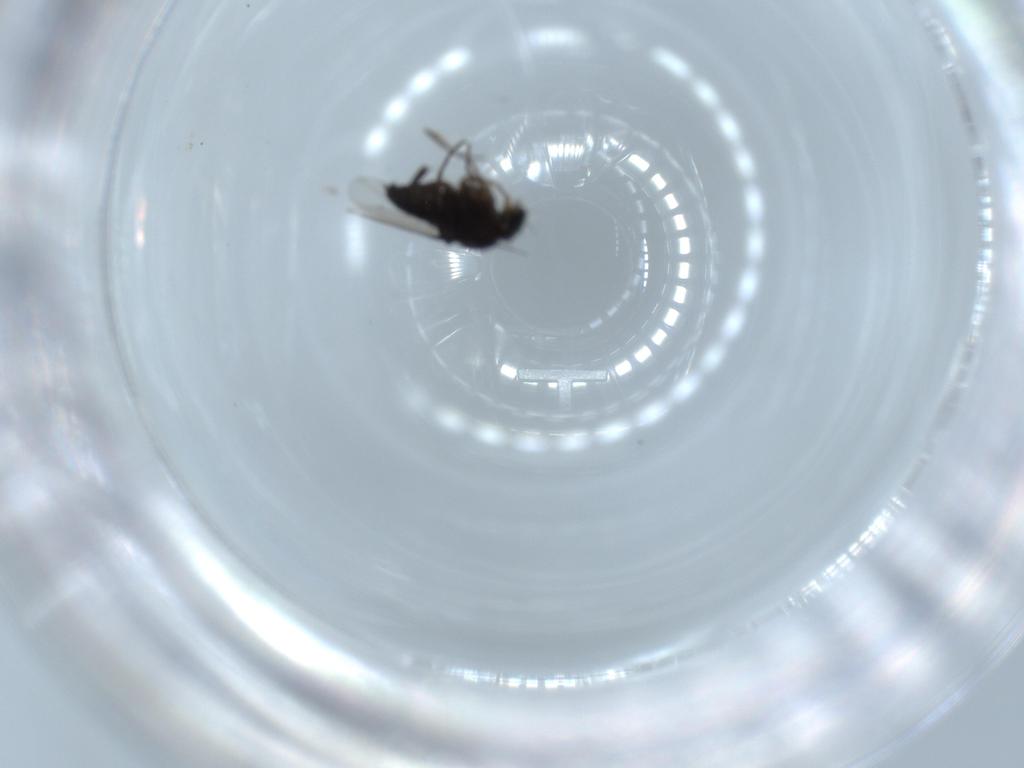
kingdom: Animalia
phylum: Arthropoda
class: Insecta
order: Diptera
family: Phoridae
